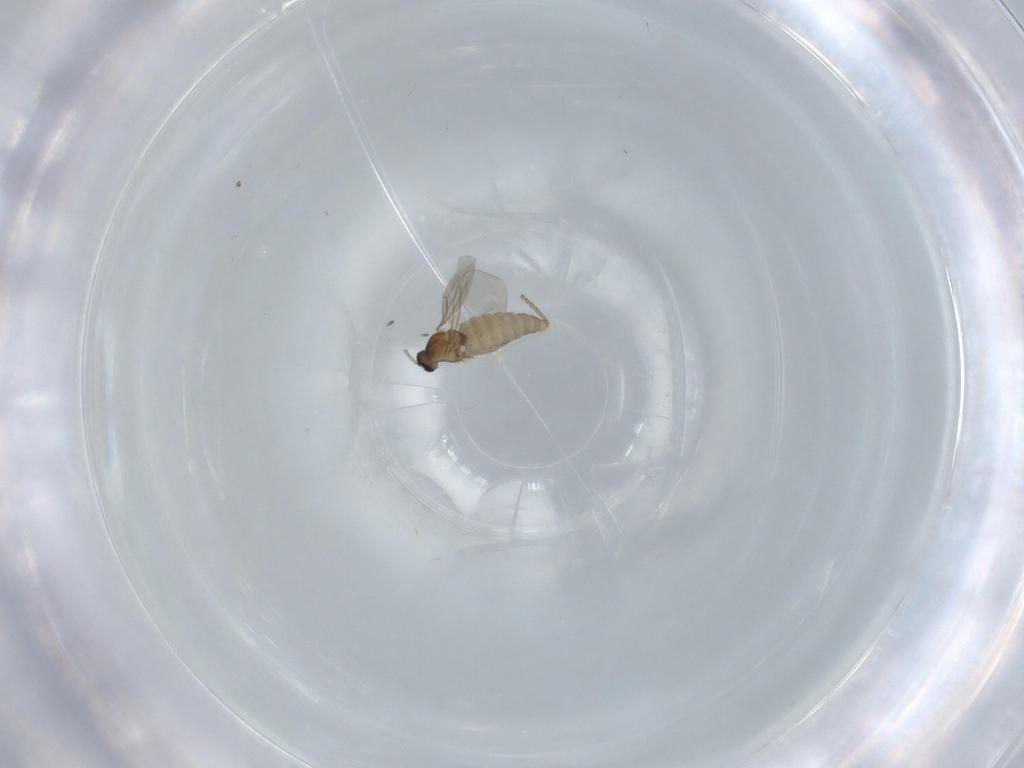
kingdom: Animalia
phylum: Arthropoda
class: Insecta
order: Diptera
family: Cecidomyiidae
